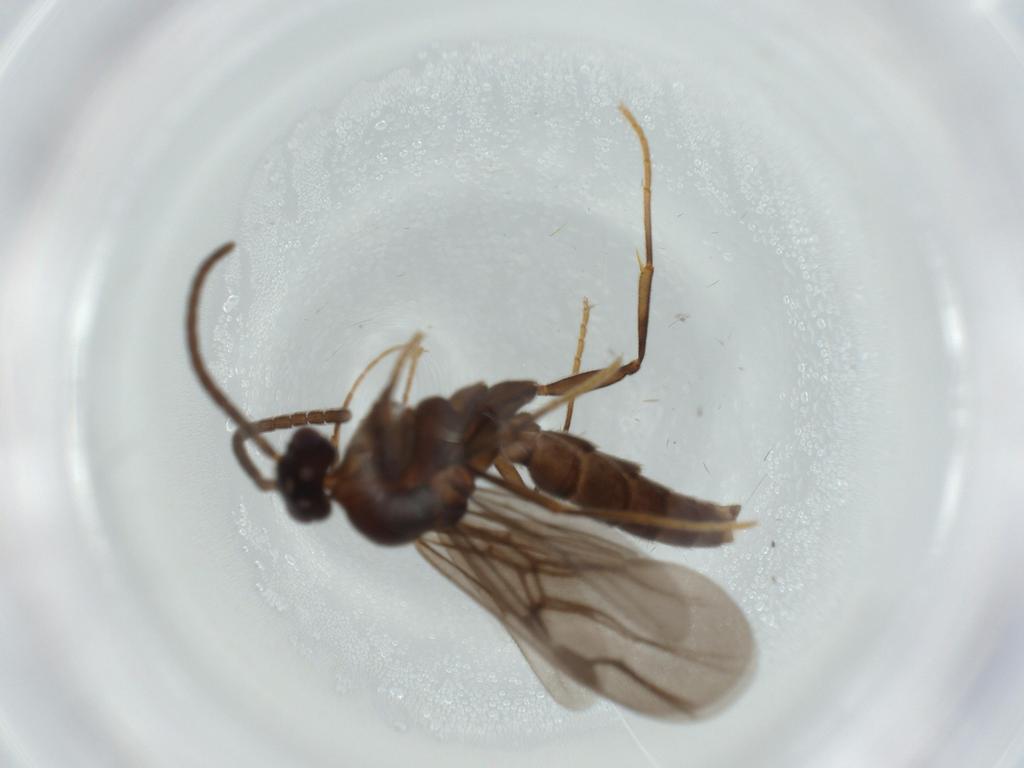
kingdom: Animalia
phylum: Arthropoda
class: Insecta
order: Hymenoptera
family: Formicidae
